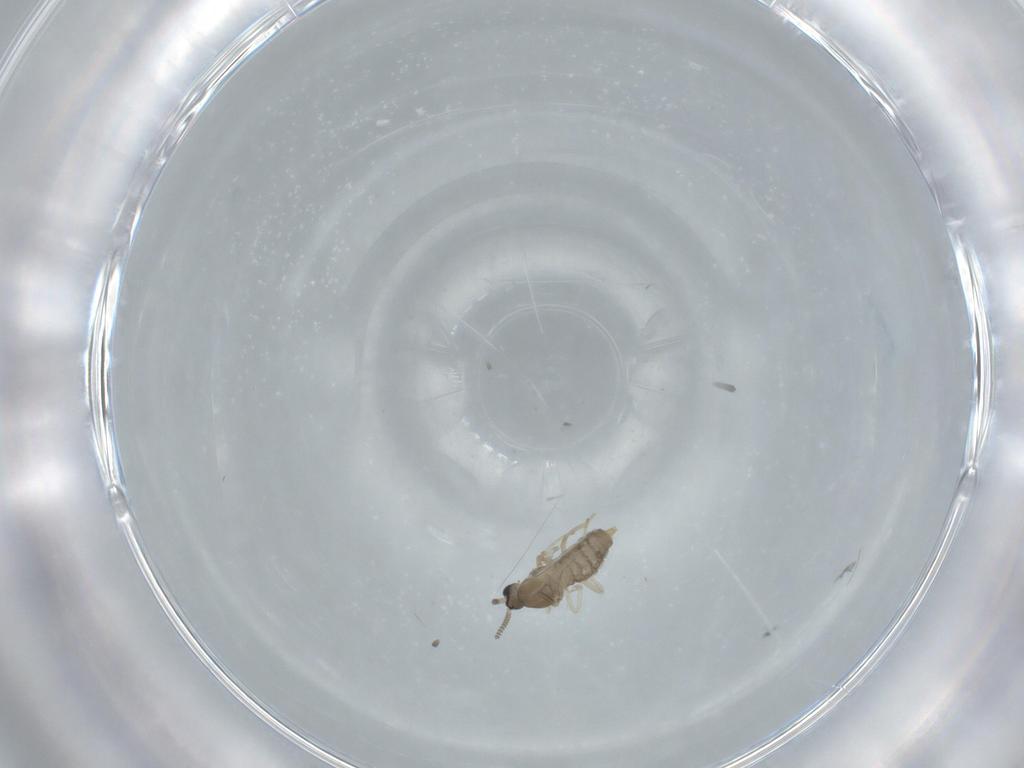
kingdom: Animalia
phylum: Arthropoda
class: Insecta
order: Diptera
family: Cecidomyiidae
